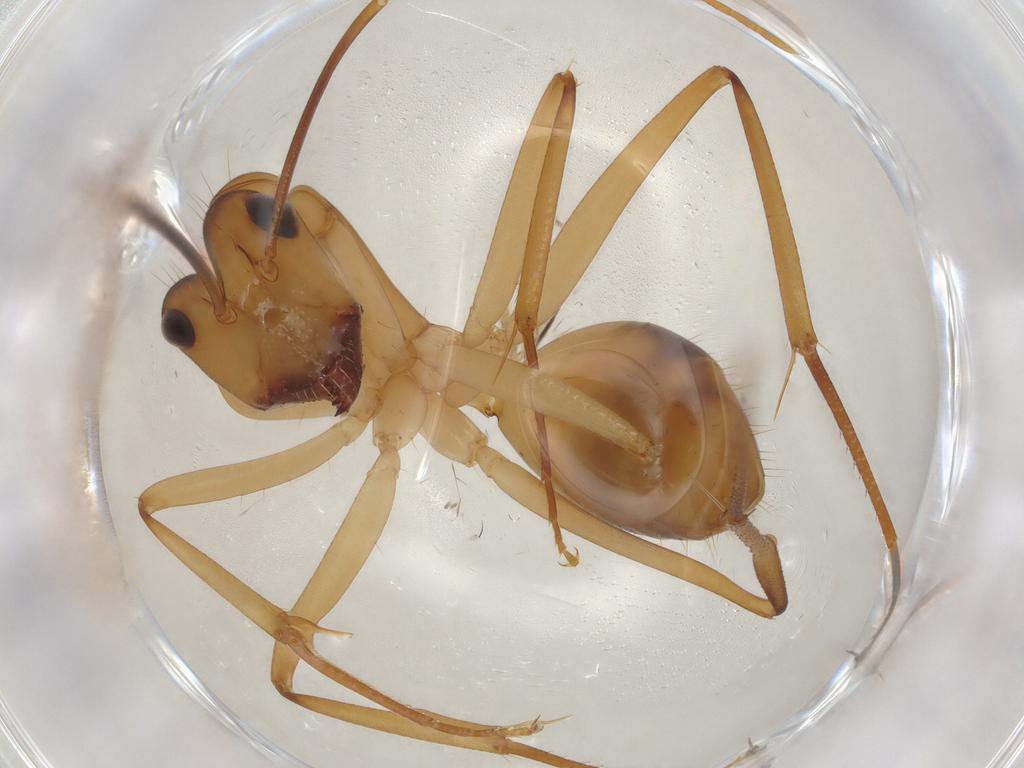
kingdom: Animalia
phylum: Arthropoda
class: Insecta
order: Hymenoptera
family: Formicidae
